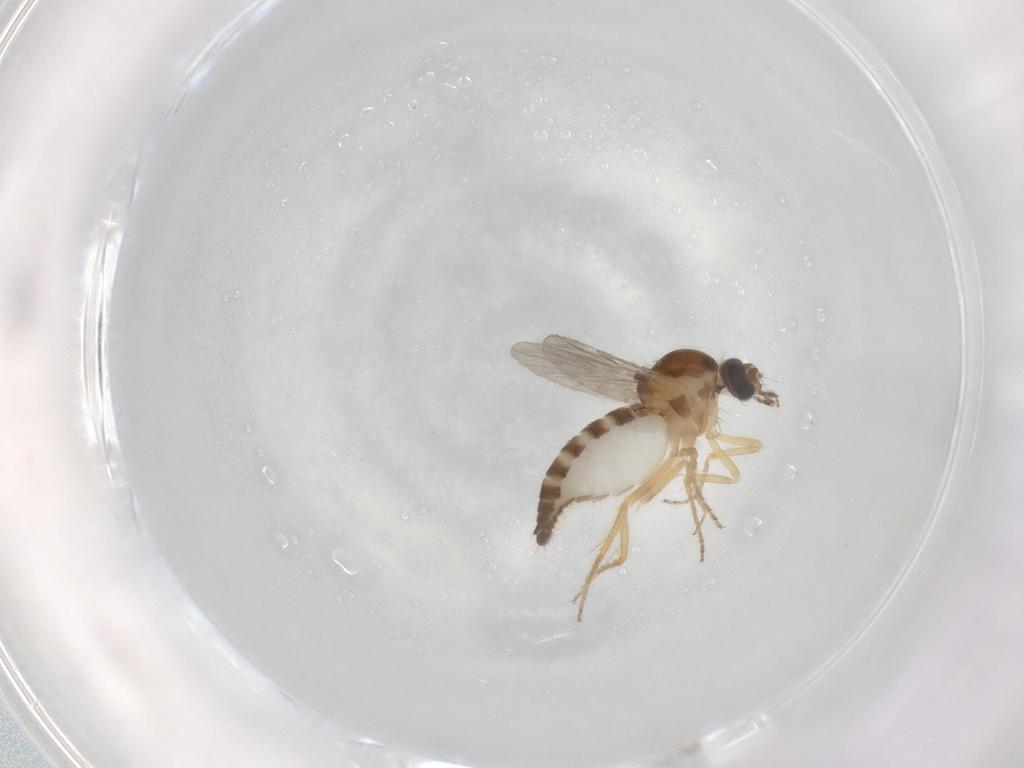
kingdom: Animalia
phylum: Arthropoda
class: Insecta
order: Diptera
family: Ceratopogonidae
